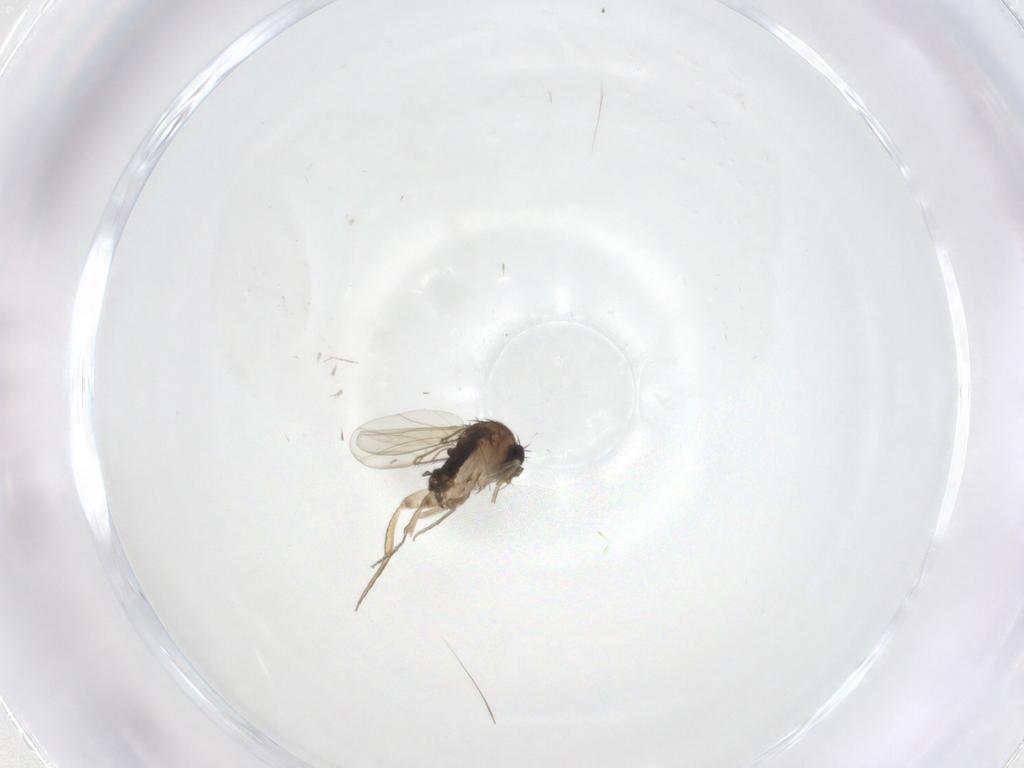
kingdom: Animalia
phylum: Arthropoda
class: Insecta
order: Diptera
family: Phoridae
